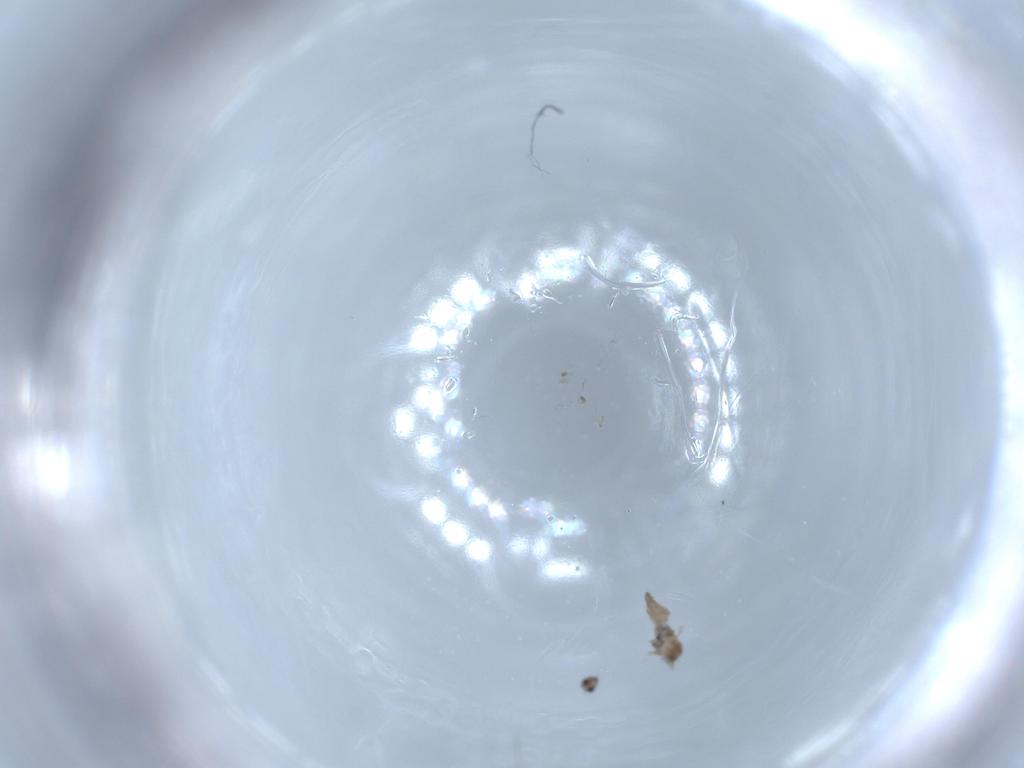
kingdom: Animalia
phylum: Arthropoda
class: Insecta
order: Diptera
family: Cecidomyiidae
